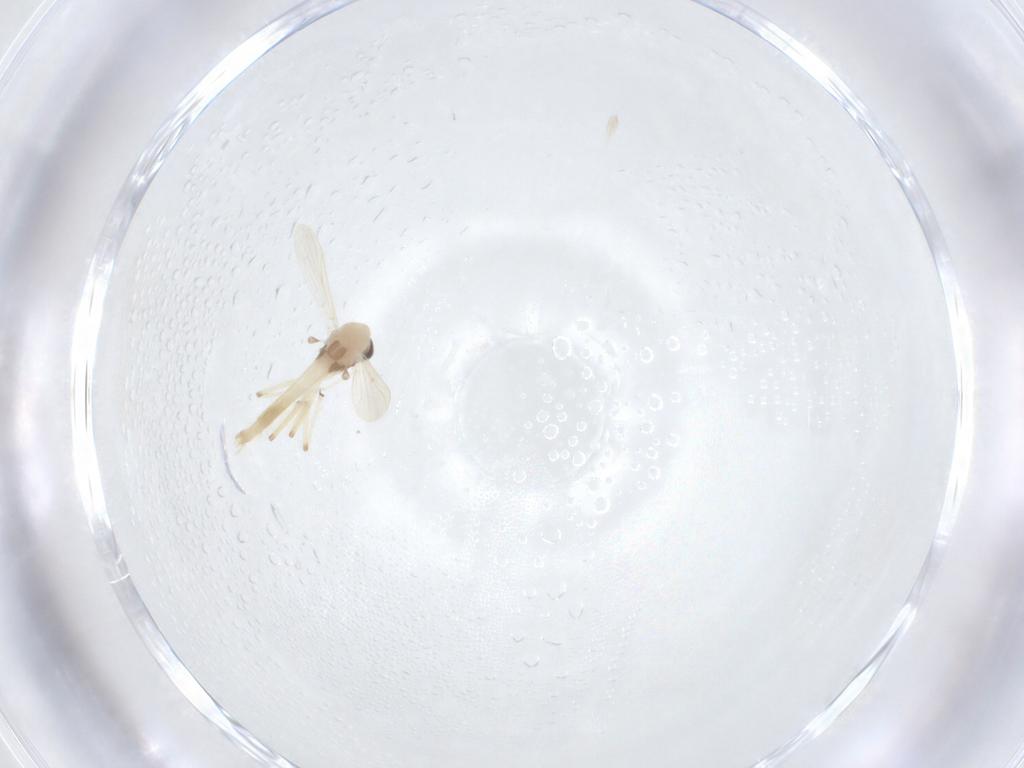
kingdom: Animalia
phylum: Arthropoda
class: Insecta
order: Diptera
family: Chironomidae
